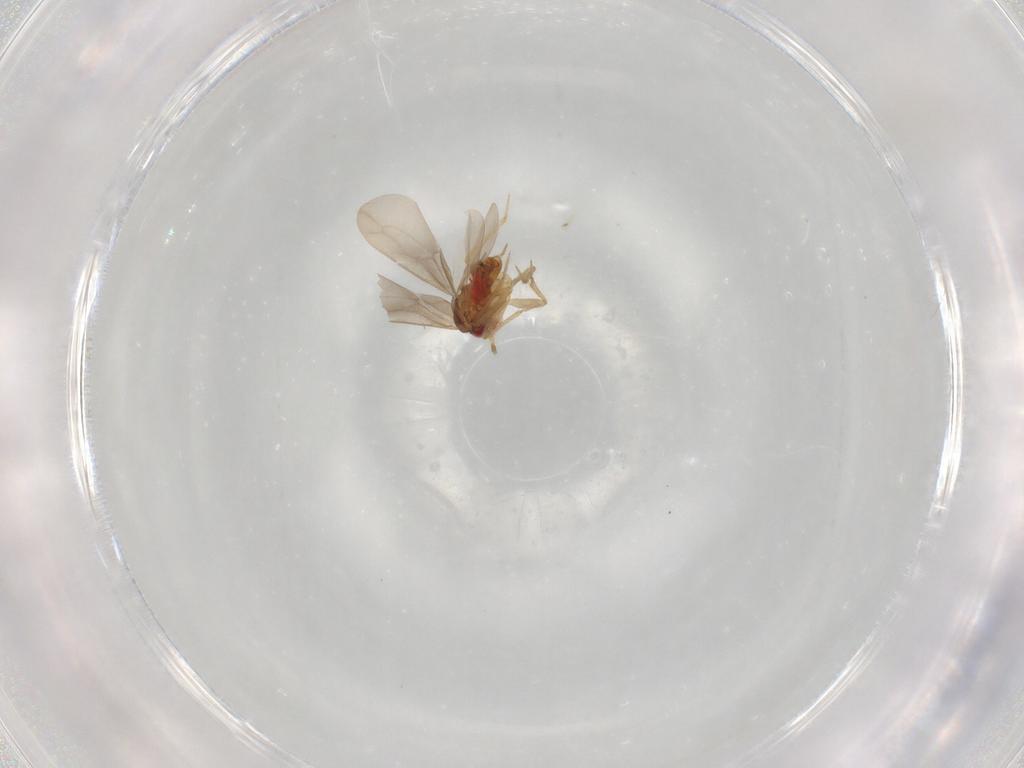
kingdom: Animalia
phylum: Arthropoda
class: Insecta
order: Hemiptera
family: Ceratocombidae
